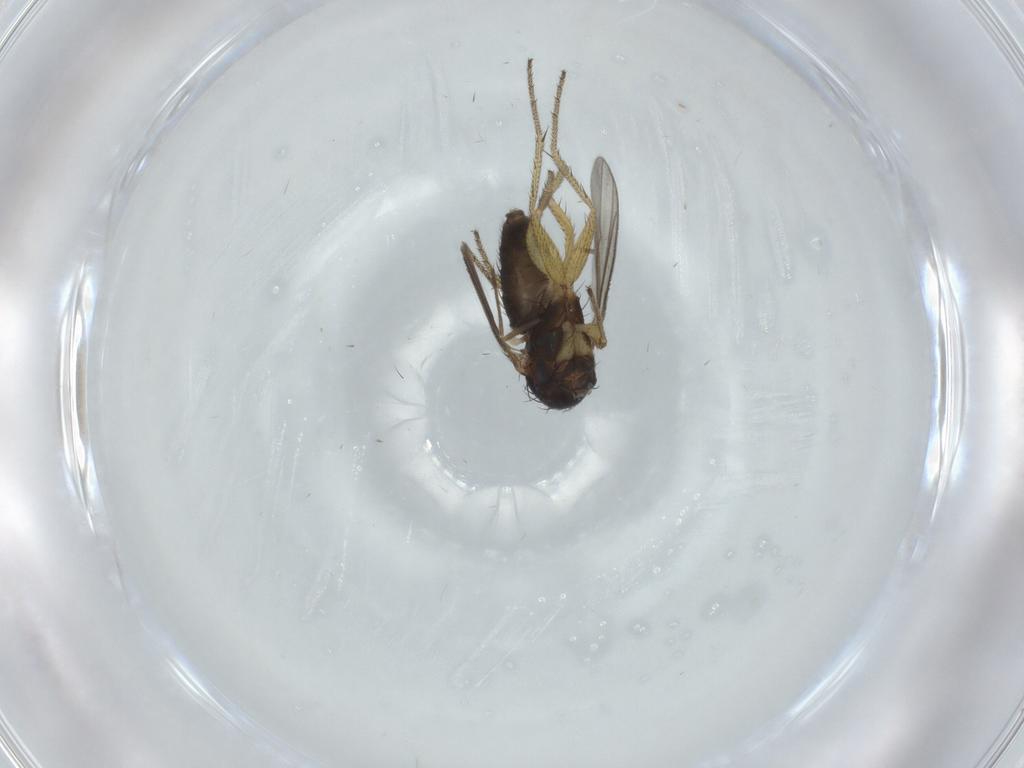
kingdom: Animalia
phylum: Arthropoda
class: Insecta
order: Diptera
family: Dolichopodidae
